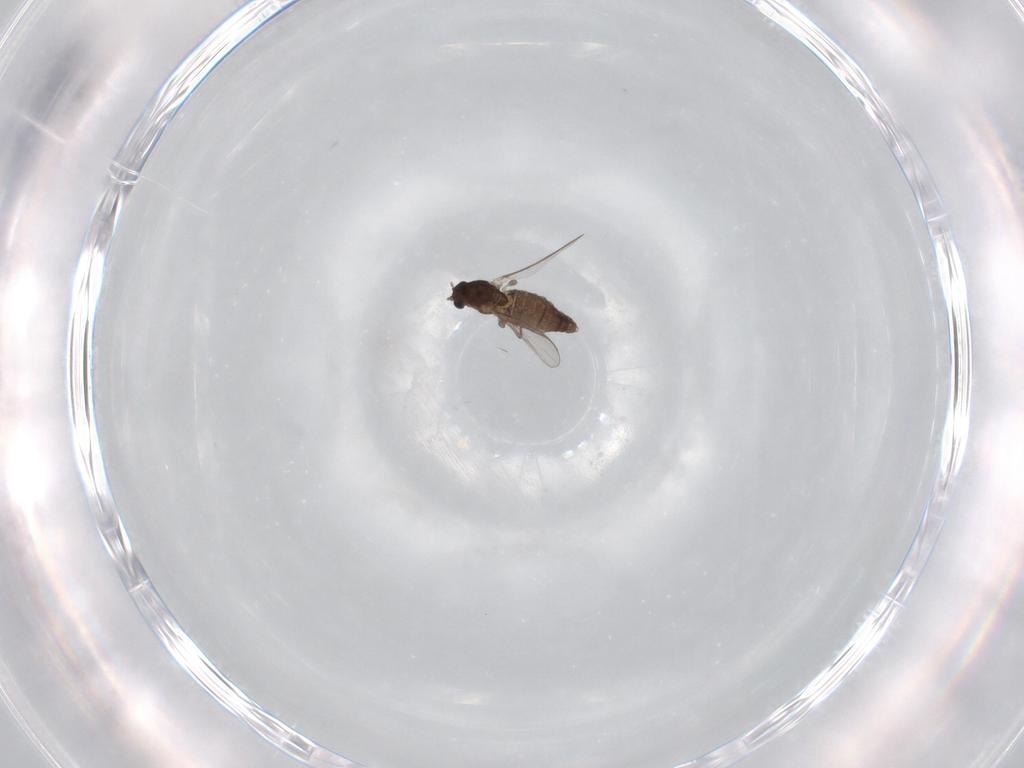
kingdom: Animalia
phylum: Arthropoda
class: Insecta
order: Diptera
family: Chironomidae
